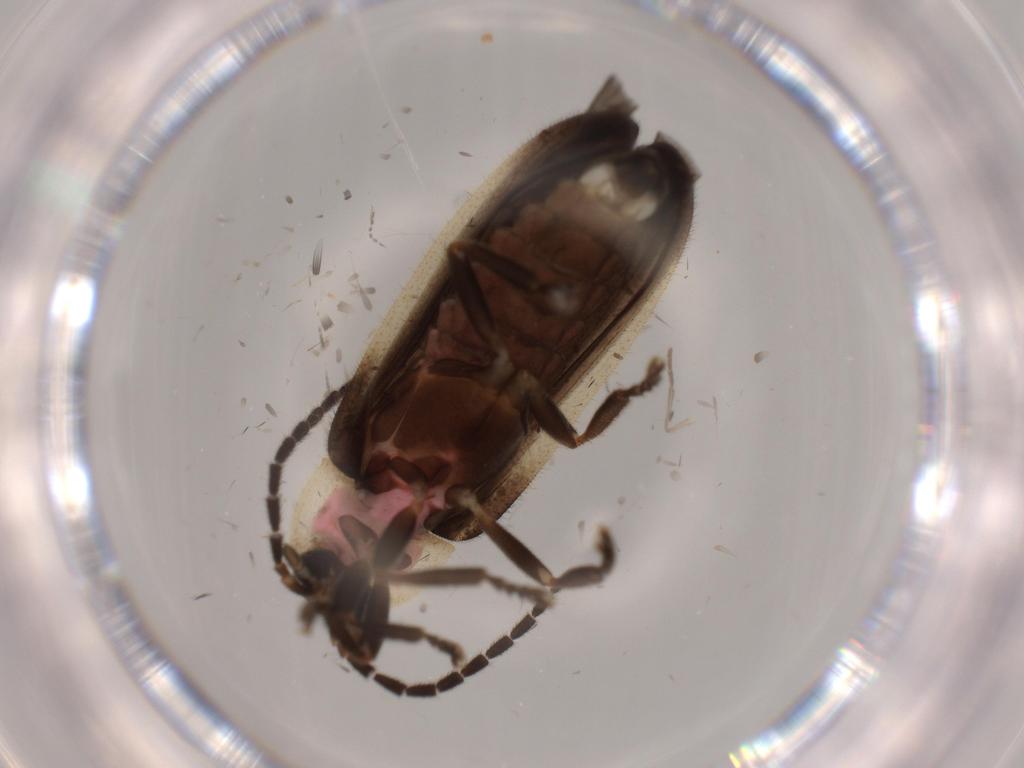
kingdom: Animalia
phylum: Arthropoda
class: Insecta
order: Coleoptera
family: Lampyridae
